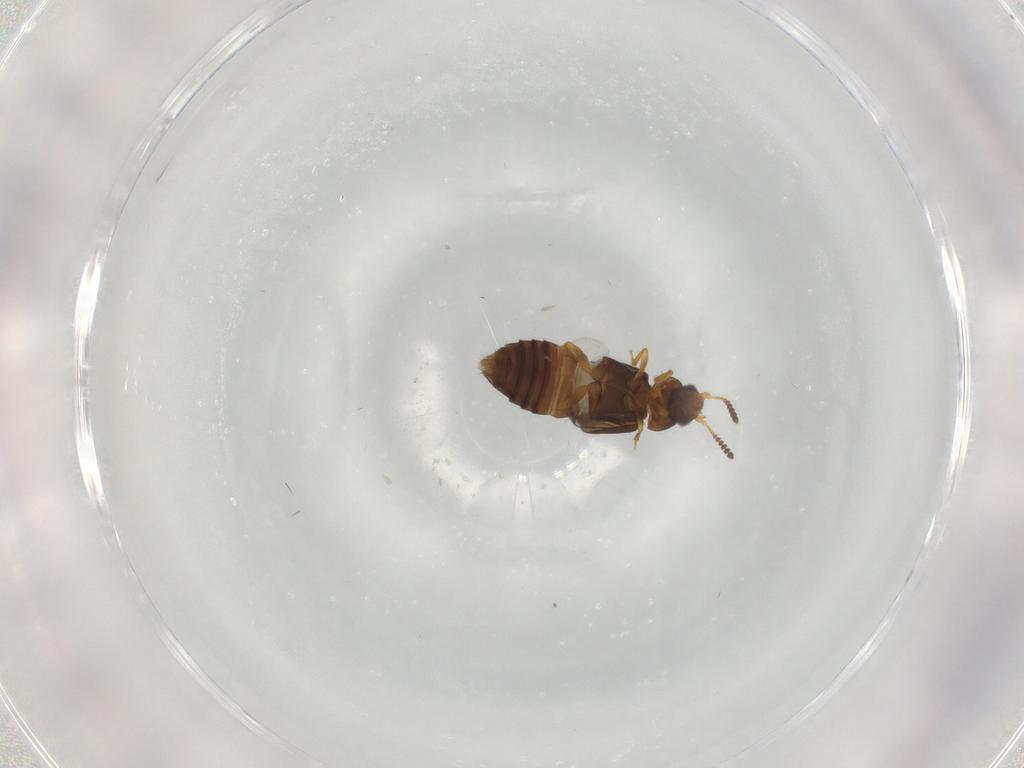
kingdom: Animalia
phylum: Arthropoda
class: Insecta
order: Coleoptera
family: Staphylinidae
